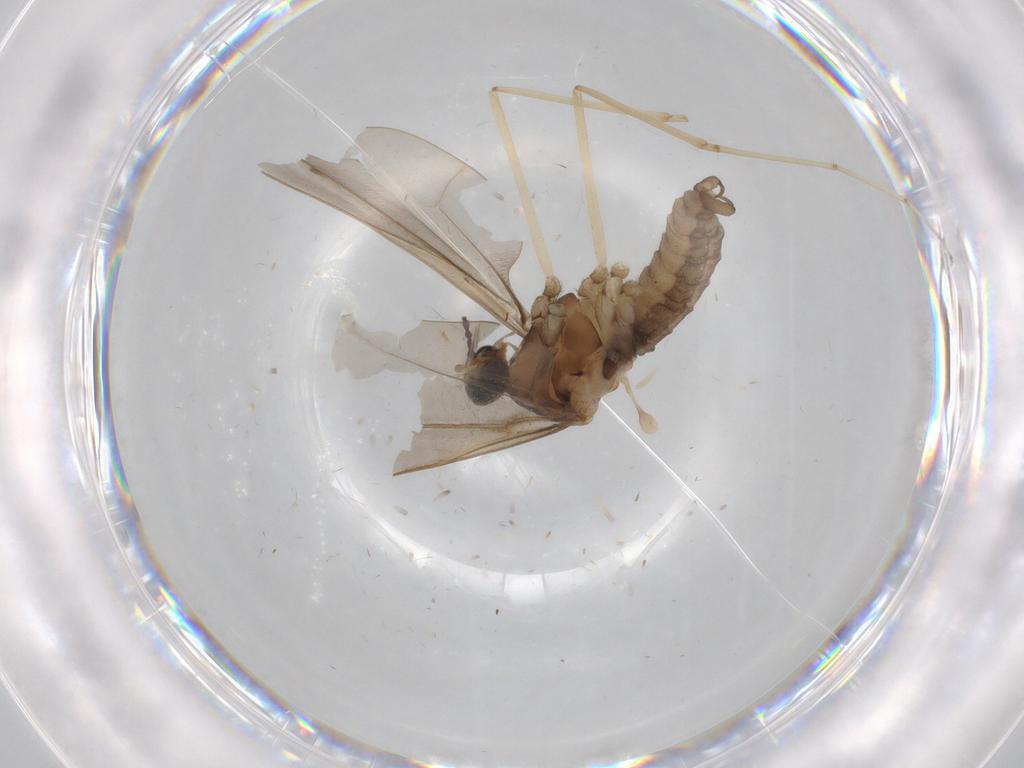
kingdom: Animalia
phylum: Arthropoda
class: Insecta
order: Diptera
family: Cecidomyiidae
